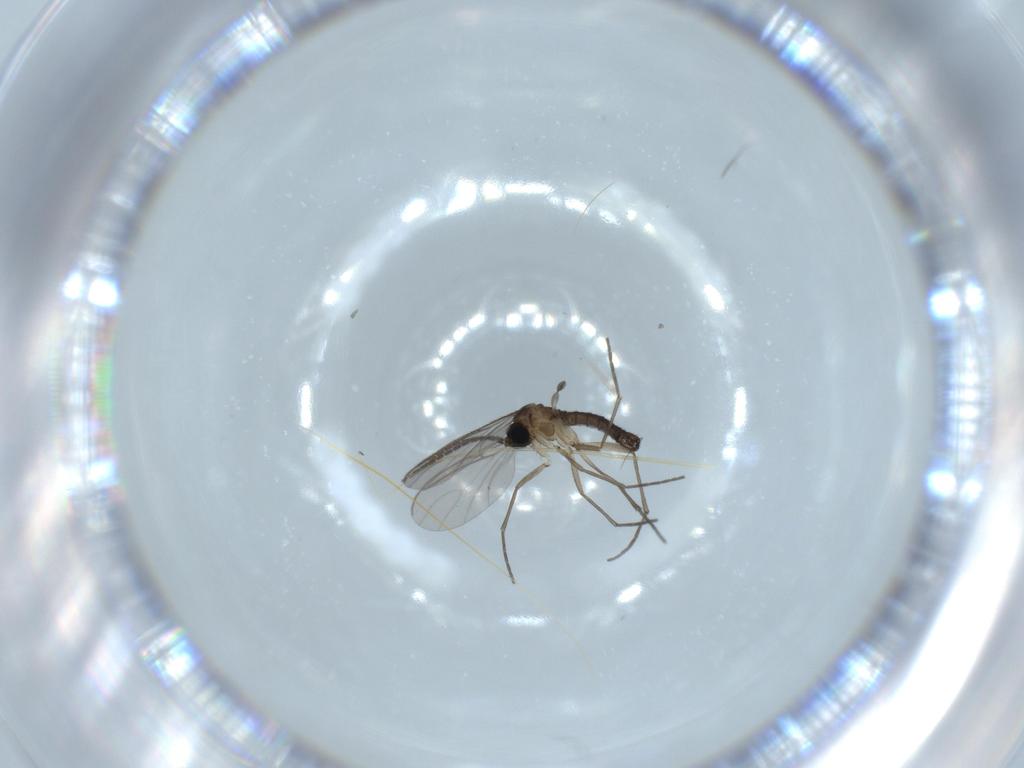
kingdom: Animalia
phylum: Arthropoda
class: Insecta
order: Diptera
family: Sciaridae
